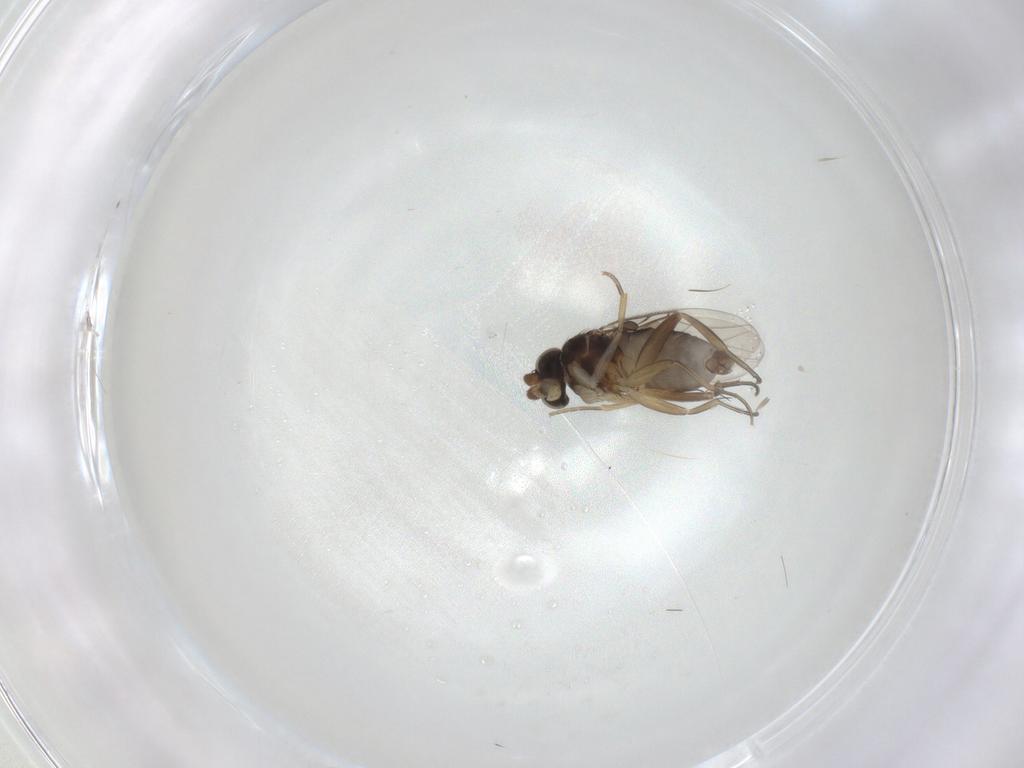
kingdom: Animalia
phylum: Arthropoda
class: Insecta
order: Diptera
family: Phoridae
